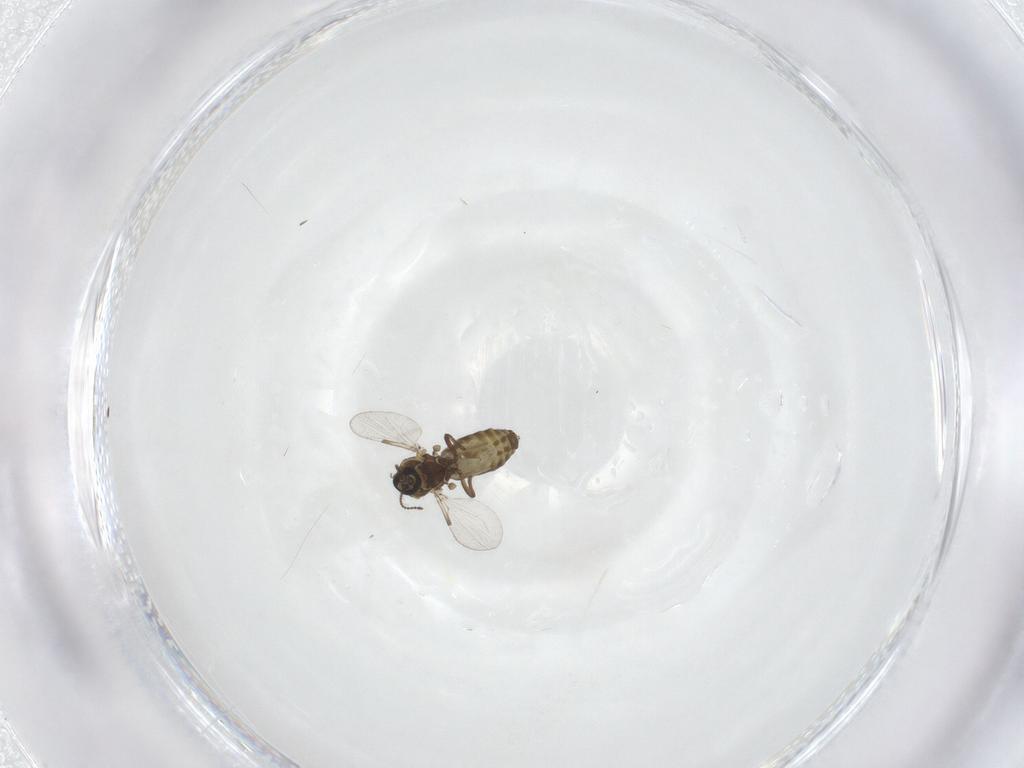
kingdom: Animalia
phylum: Arthropoda
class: Insecta
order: Diptera
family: Ceratopogonidae
